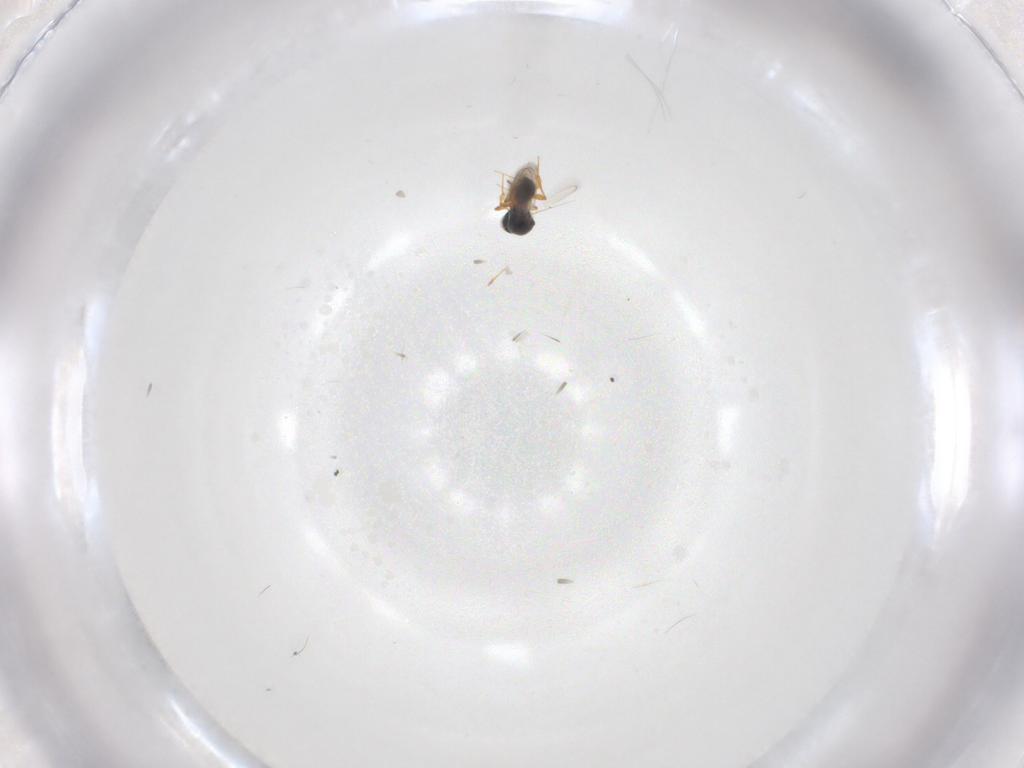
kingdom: Animalia
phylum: Arthropoda
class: Insecta
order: Hymenoptera
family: Platygastridae
